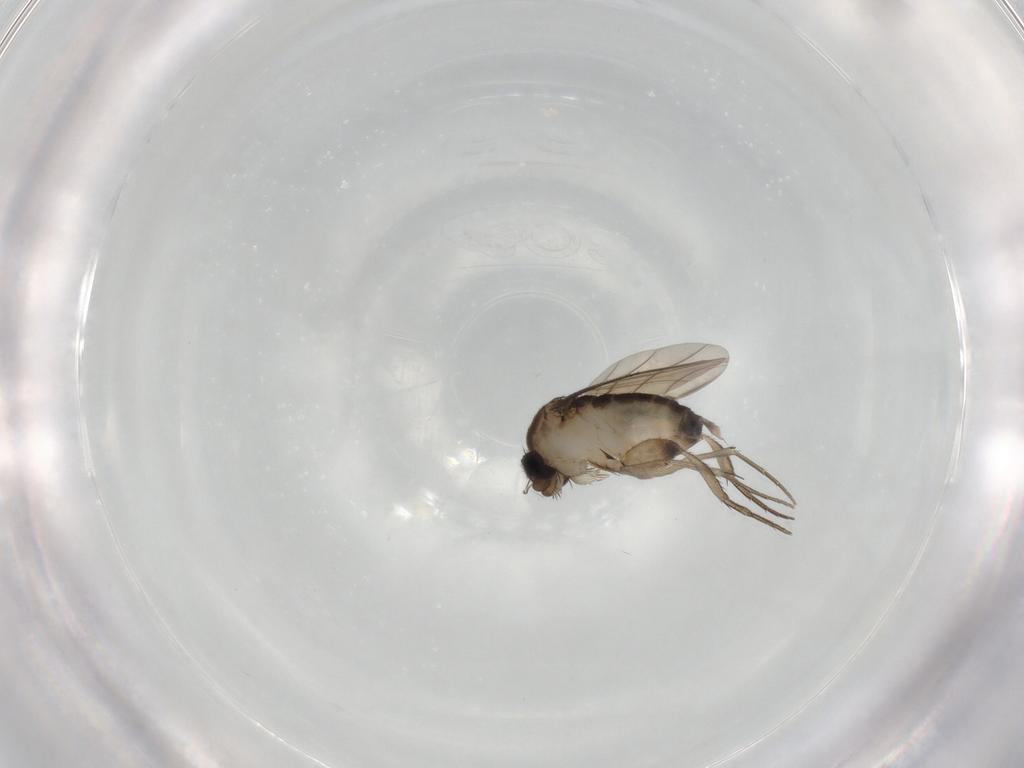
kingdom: Animalia
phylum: Arthropoda
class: Insecta
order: Diptera
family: Phoridae
